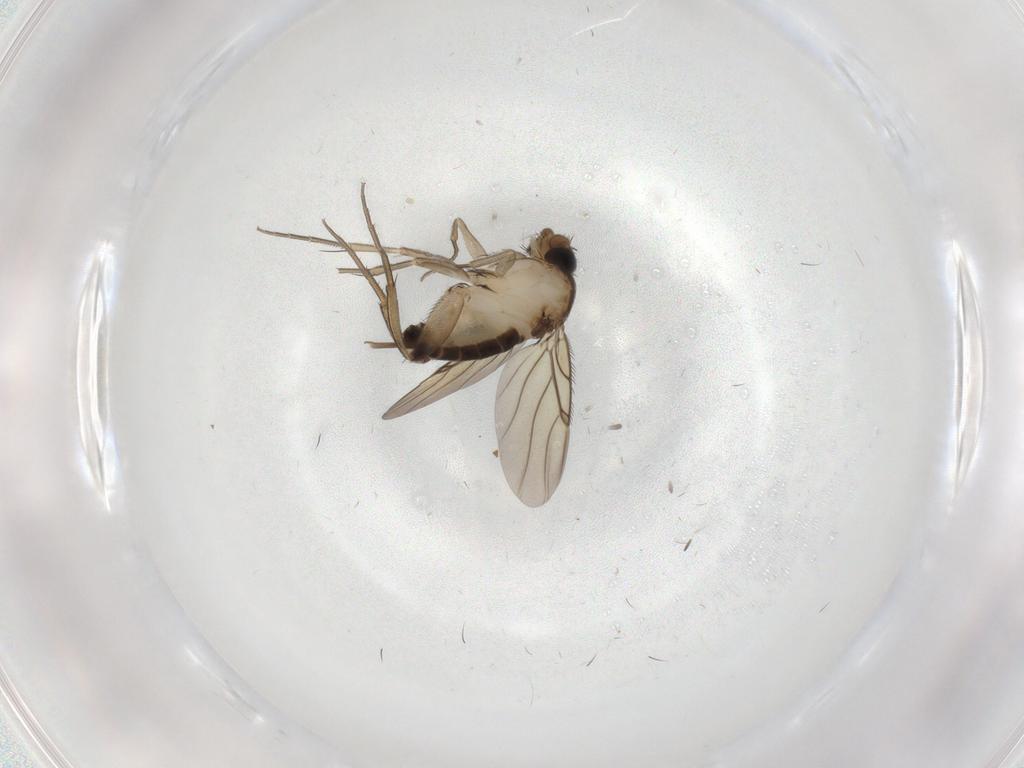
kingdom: Animalia
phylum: Arthropoda
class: Insecta
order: Diptera
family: Phoridae
